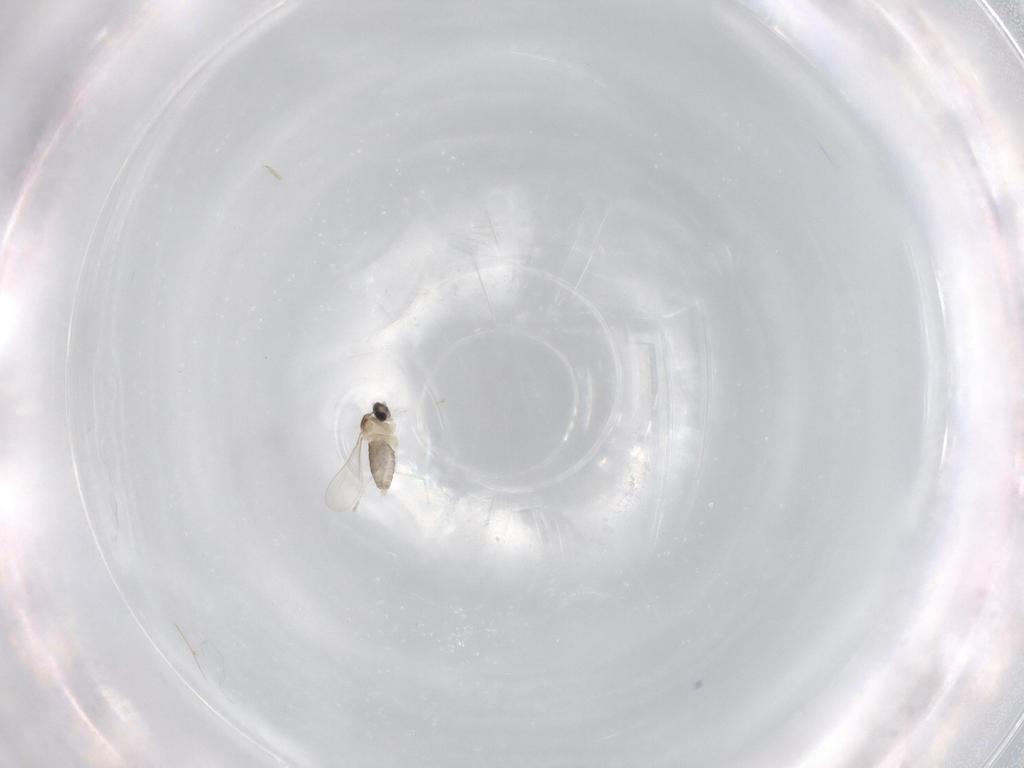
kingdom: Animalia
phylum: Arthropoda
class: Insecta
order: Diptera
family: Cecidomyiidae
